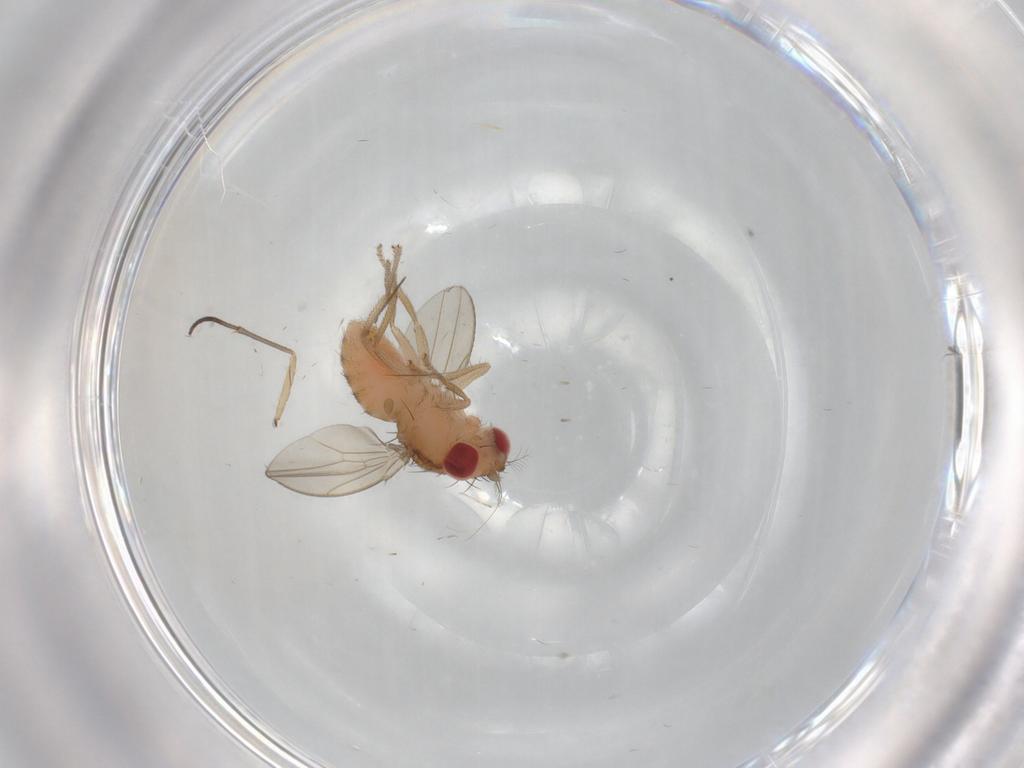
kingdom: Animalia
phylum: Arthropoda
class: Insecta
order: Diptera
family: Drosophilidae
